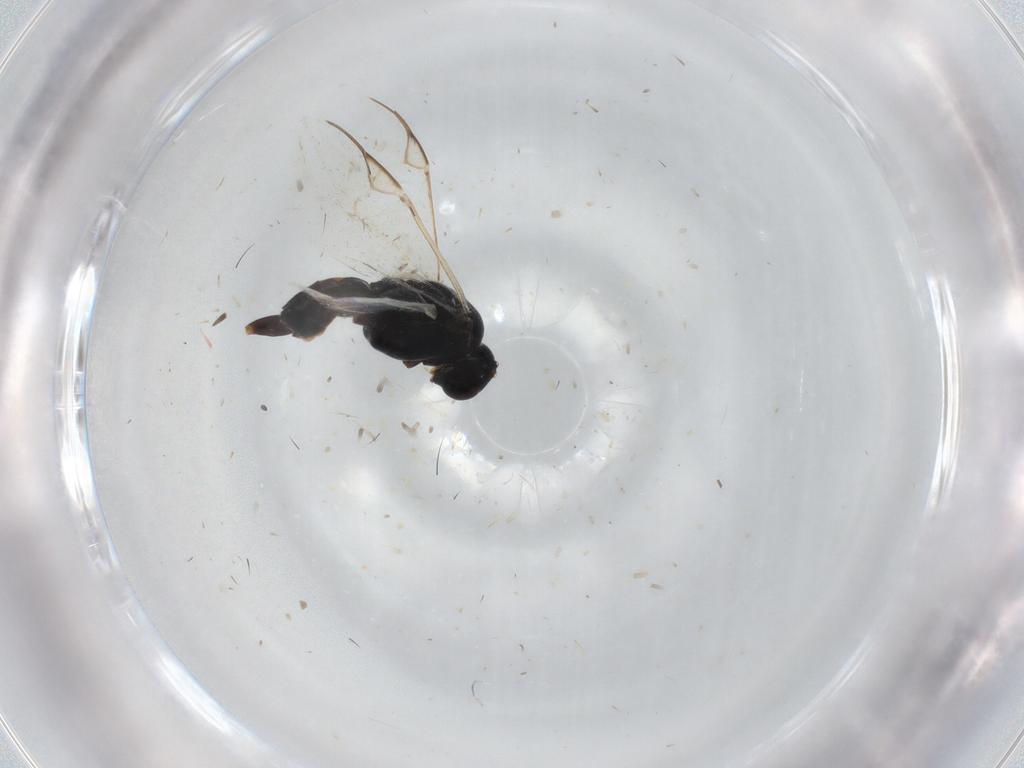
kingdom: Animalia
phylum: Arthropoda
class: Insecta
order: Hymenoptera
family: Braconidae
